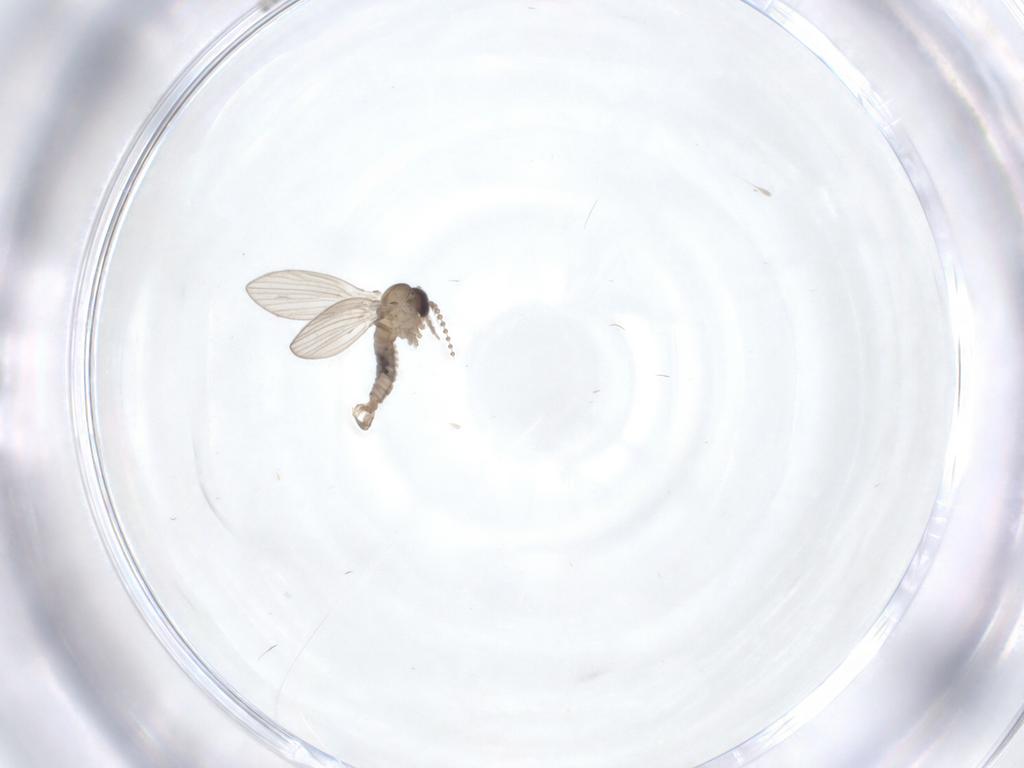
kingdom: Animalia
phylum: Arthropoda
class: Insecta
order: Diptera
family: Psychodidae
